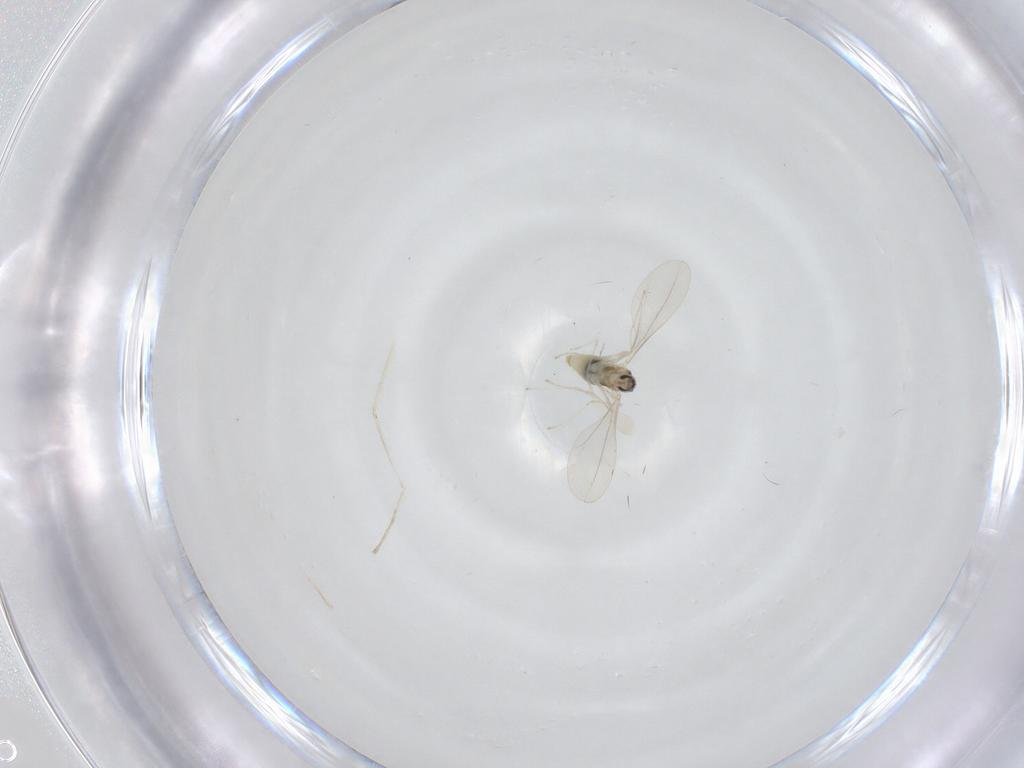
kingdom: Animalia
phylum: Arthropoda
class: Insecta
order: Diptera
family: Cecidomyiidae
